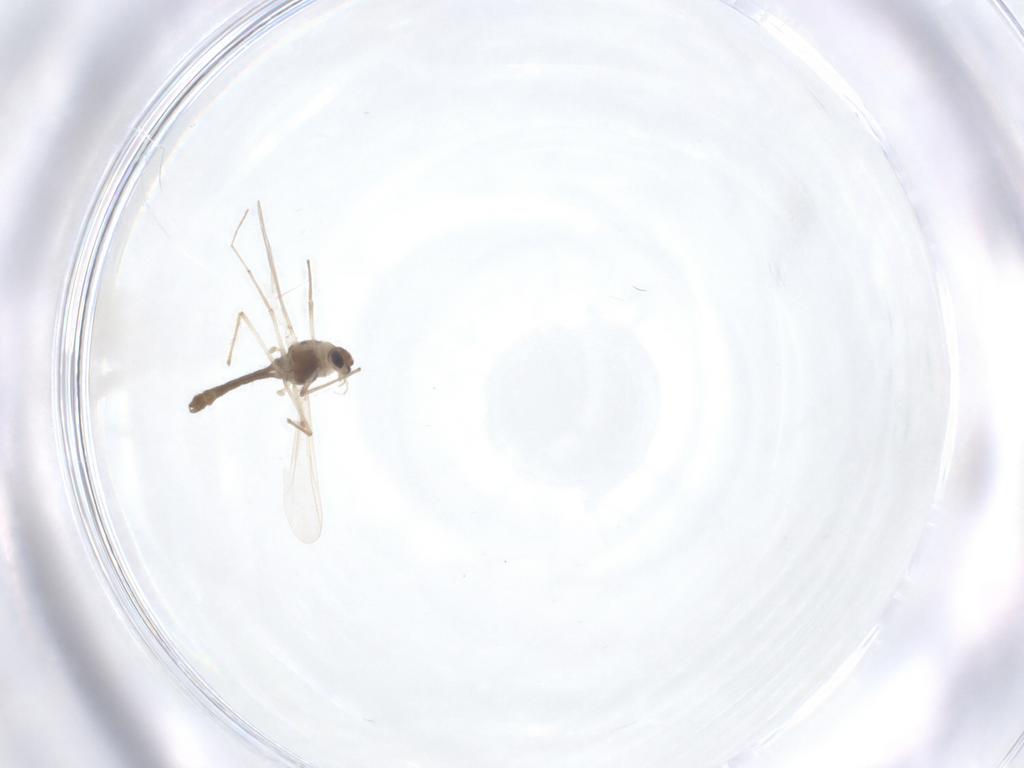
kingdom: Animalia
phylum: Arthropoda
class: Insecta
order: Diptera
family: Chironomidae
